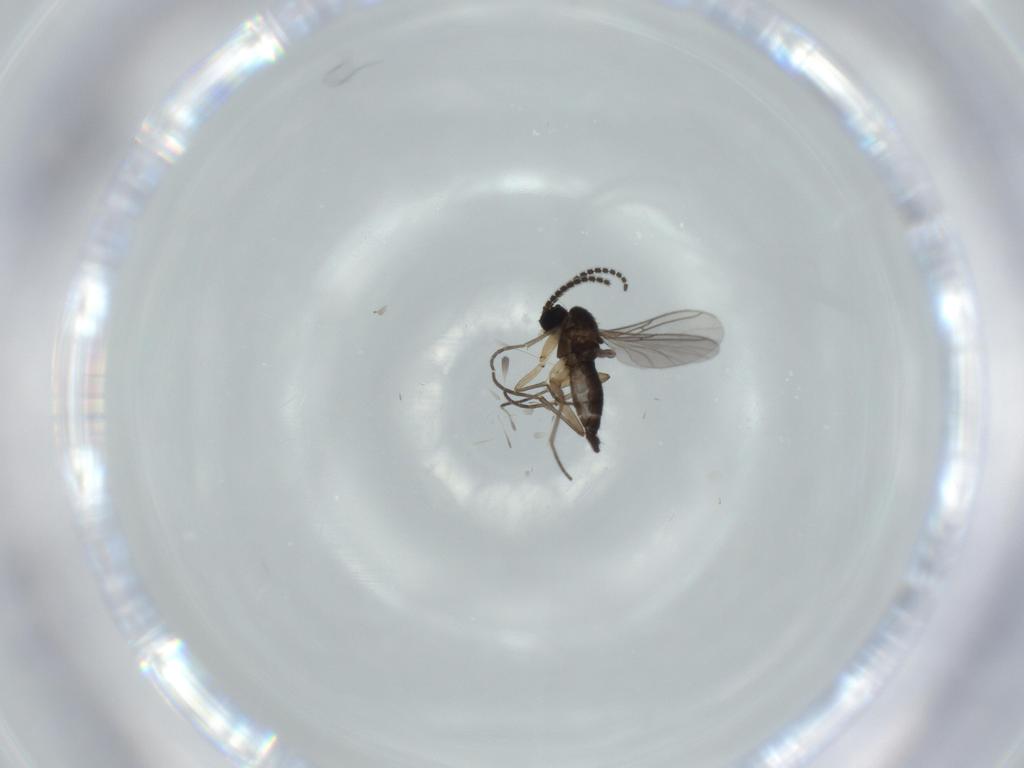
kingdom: Animalia
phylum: Arthropoda
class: Insecta
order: Diptera
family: Sciaridae
